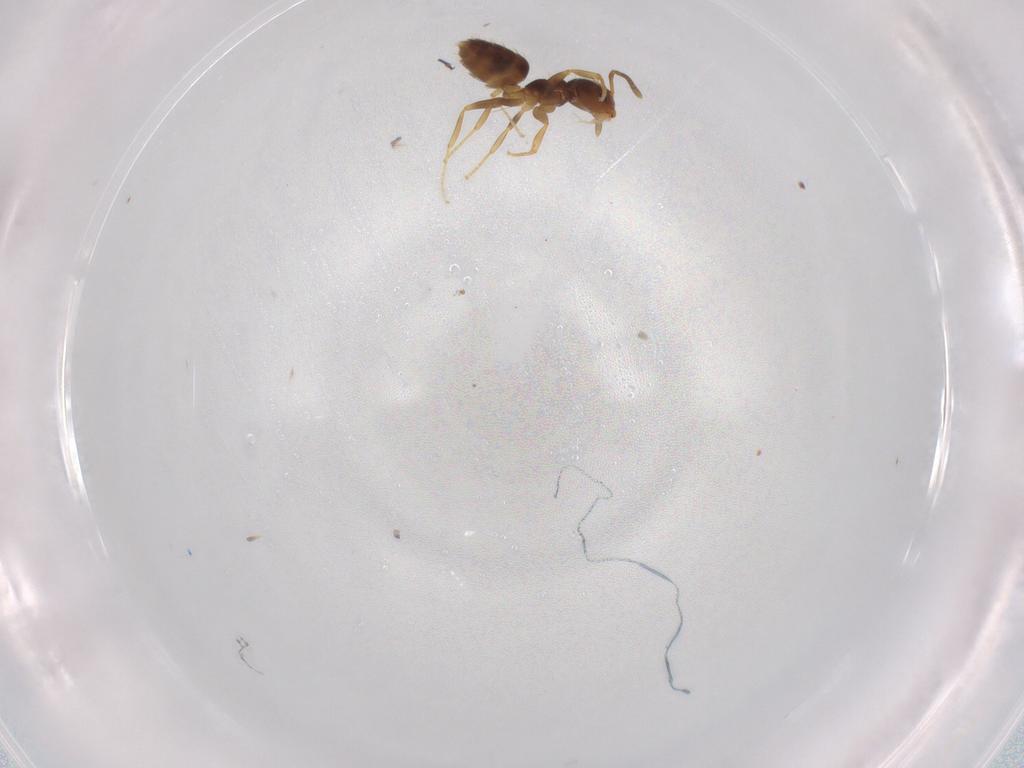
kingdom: Animalia
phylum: Arthropoda
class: Insecta
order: Hymenoptera
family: Formicidae
